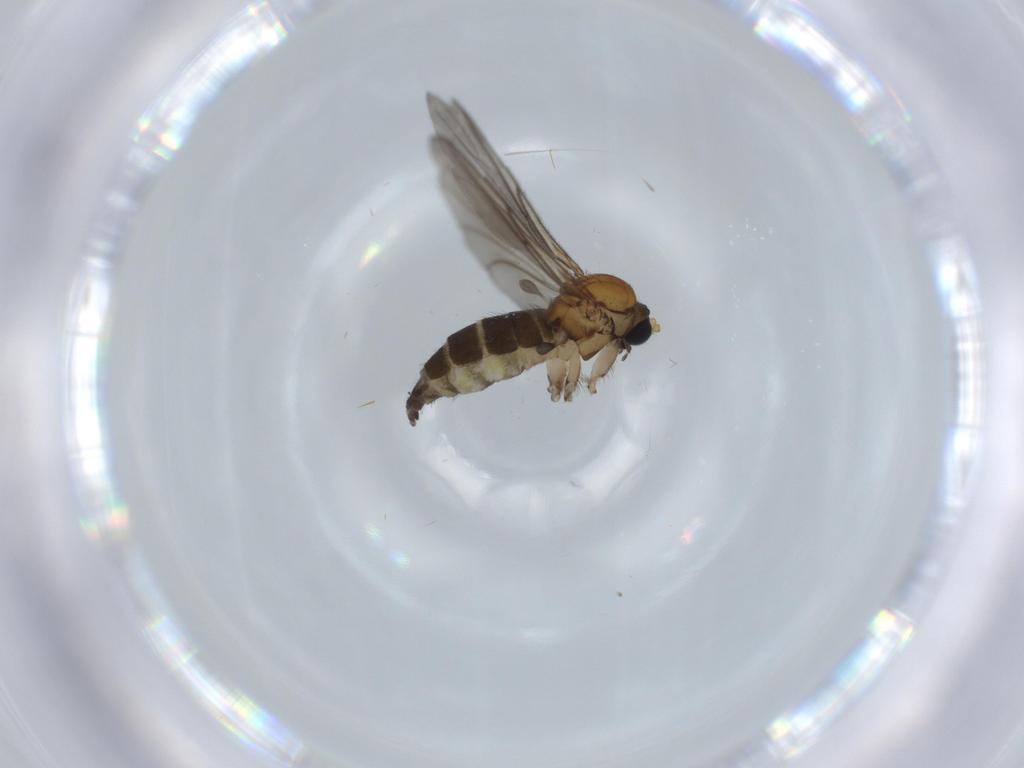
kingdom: Animalia
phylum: Arthropoda
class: Insecta
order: Diptera
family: Sciaridae
